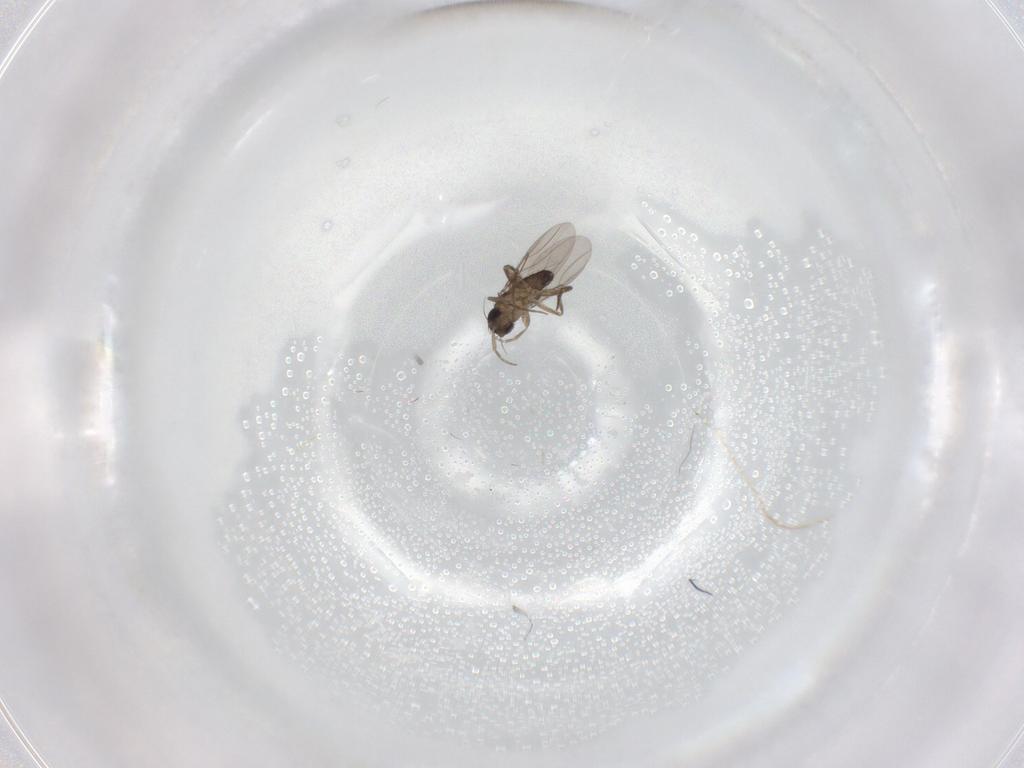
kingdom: Animalia
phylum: Arthropoda
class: Insecta
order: Diptera
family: Phoridae
